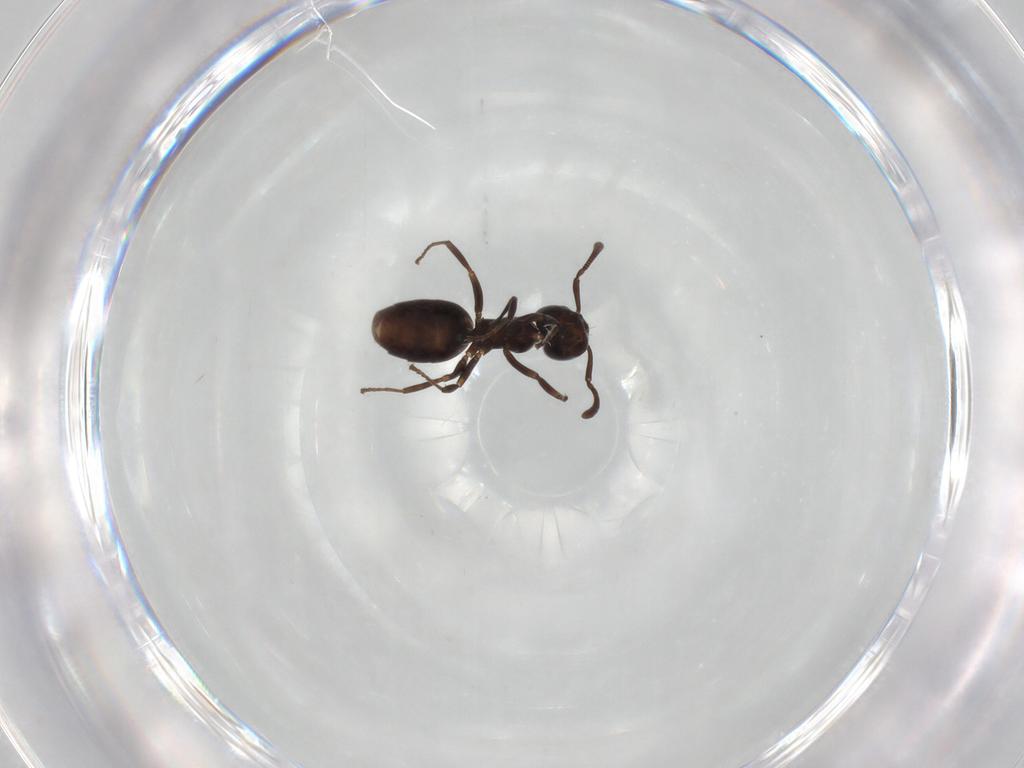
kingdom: Animalia
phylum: Arthropoda
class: Insecta
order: Hymenoptera
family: Formicidae
